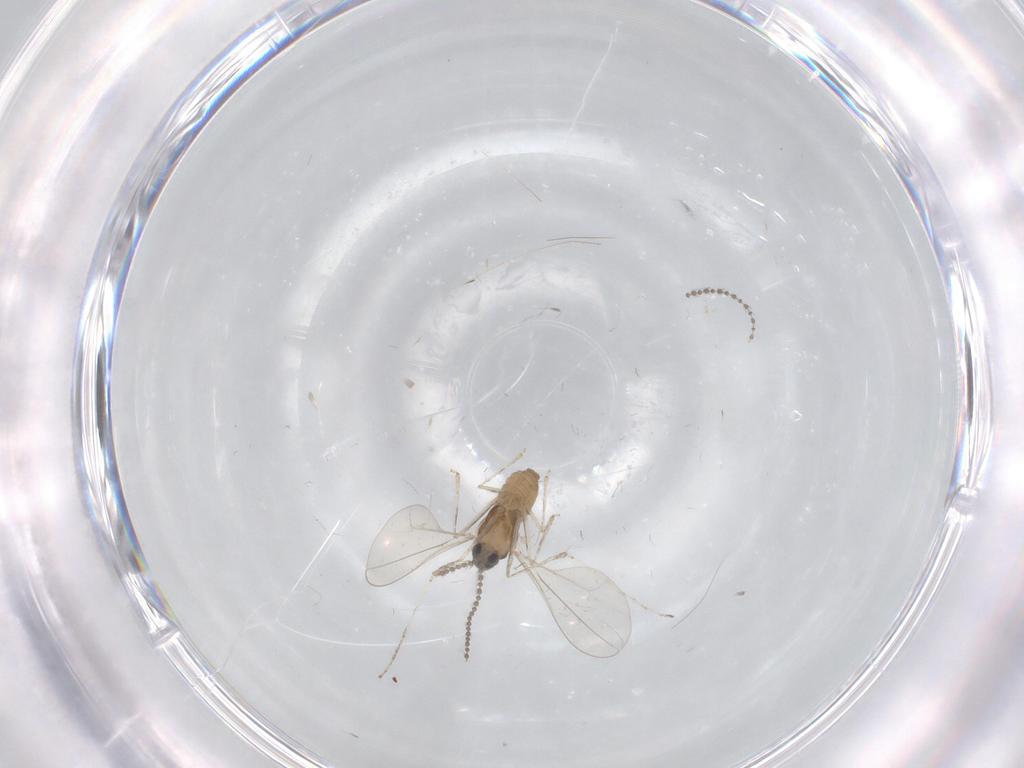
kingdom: Animalia
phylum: Arthropoda
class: Insecta
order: Diptera
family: Cecidomyiidae
